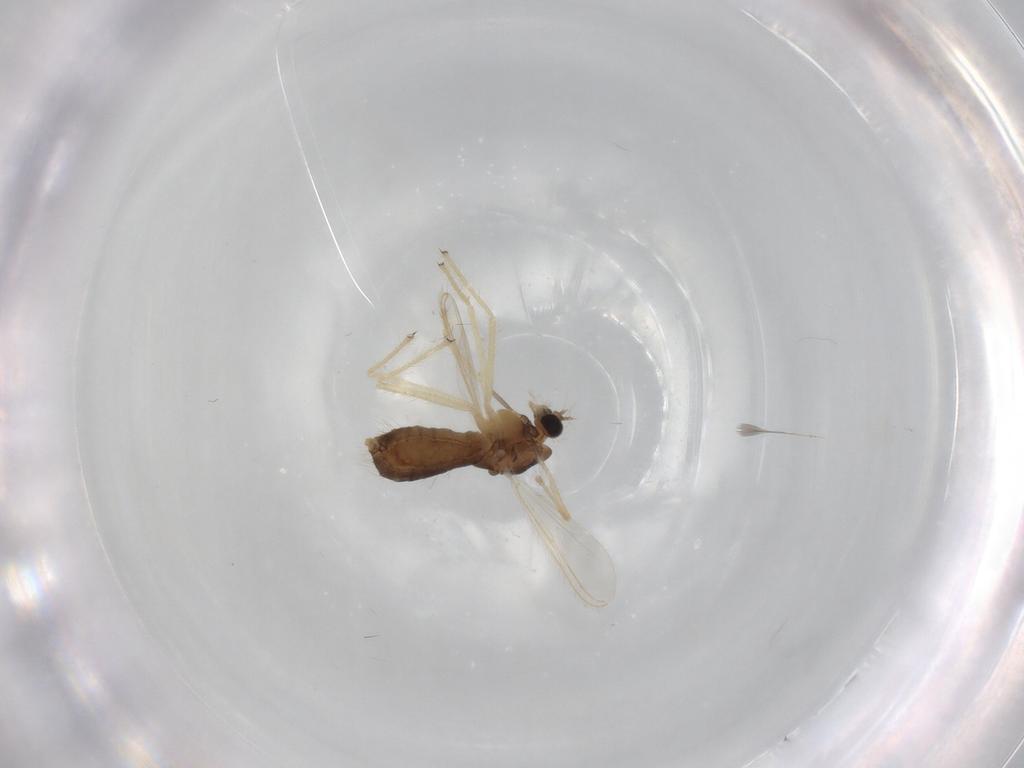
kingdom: Animalia
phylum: Arthropoda
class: Insecta
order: Diptera
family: Chironomidae
